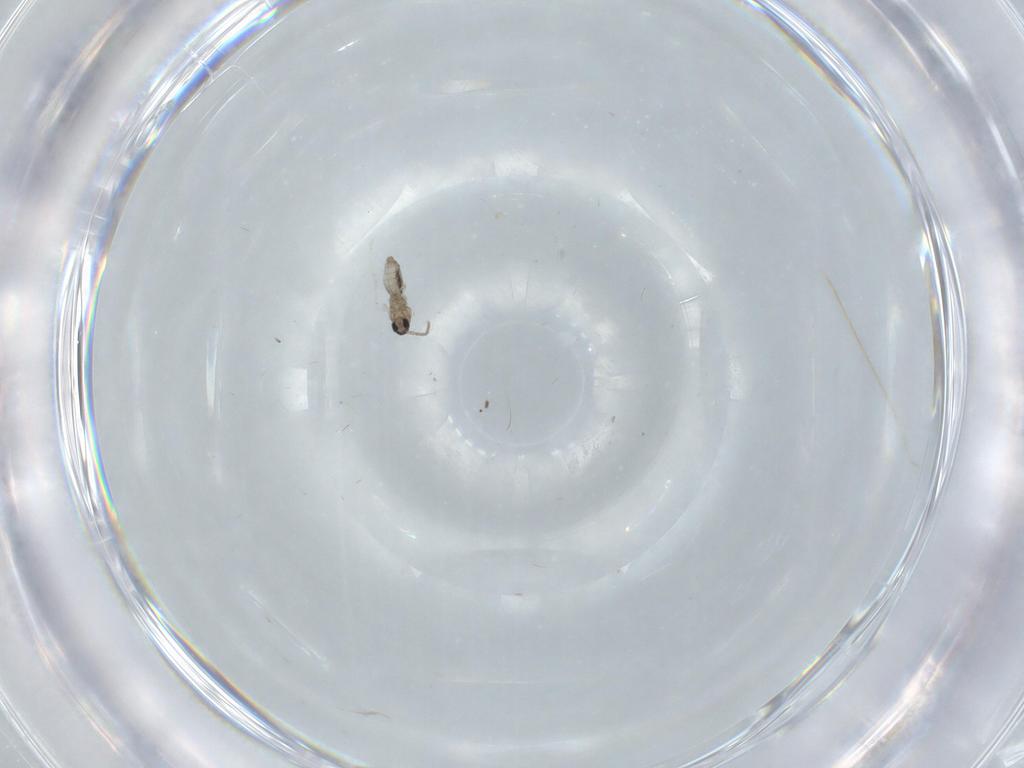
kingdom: Animalia
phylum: Arthropoda
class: Insecta
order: Diptera
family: Cecidomyiidae
